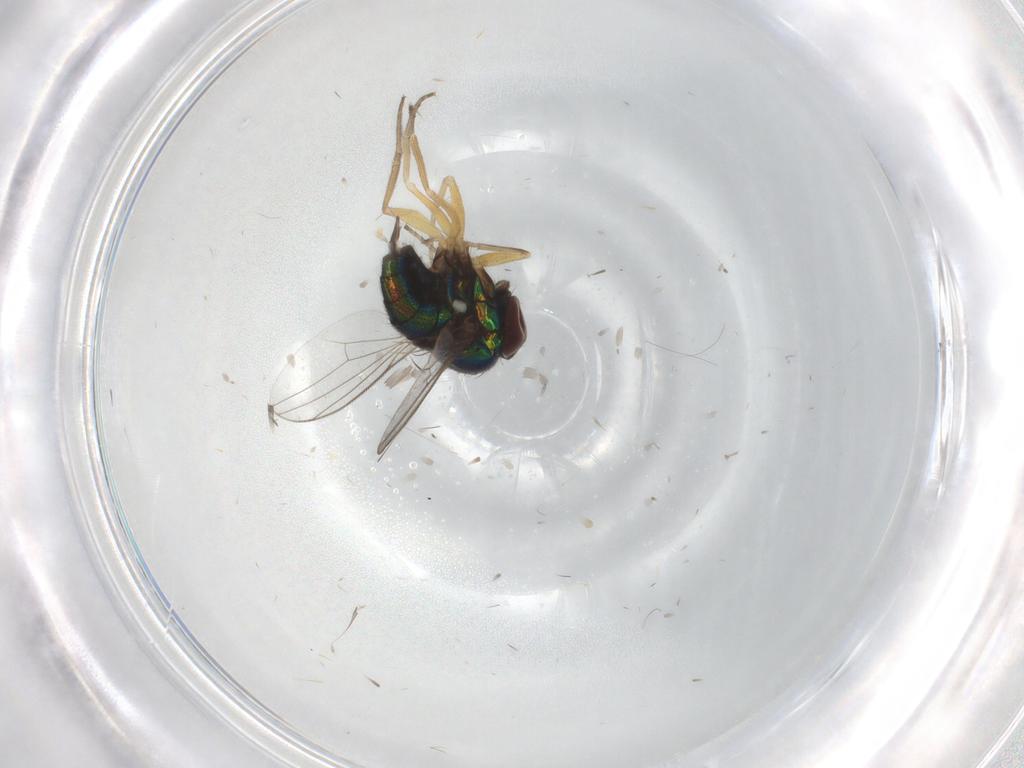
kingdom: Animalia
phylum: Arthropoda
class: Insecta
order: Diptera
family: Dolichopodidae
